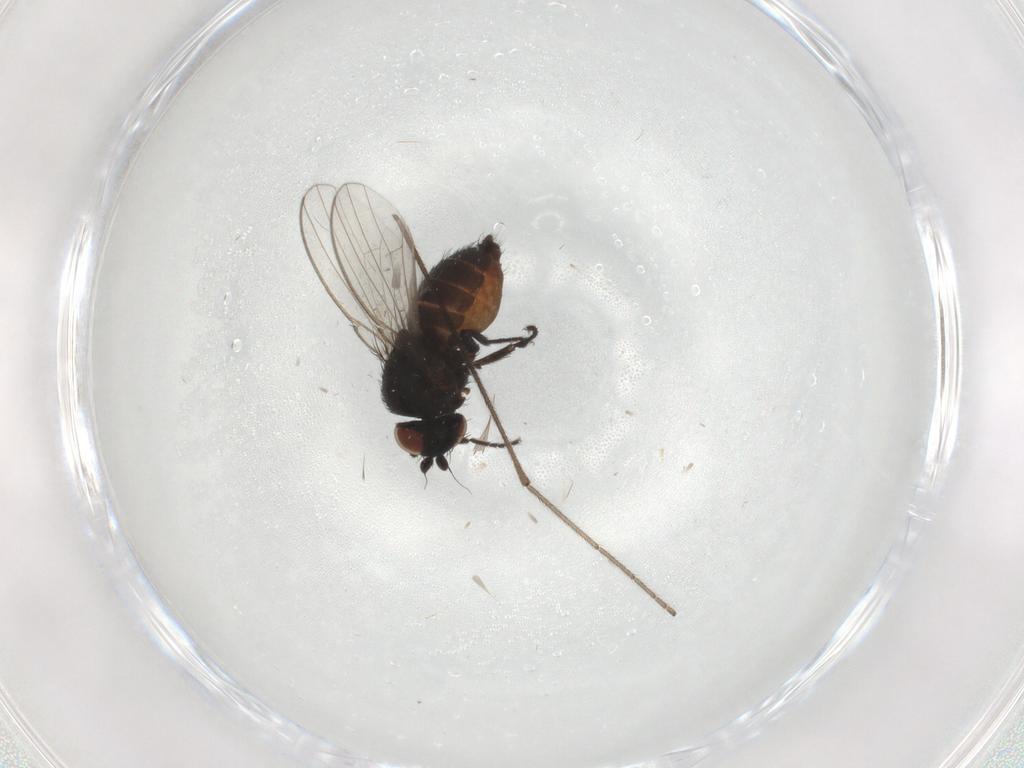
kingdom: Animalia
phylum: Arthropoda
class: Insecta
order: Diptera
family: Milichiidae
